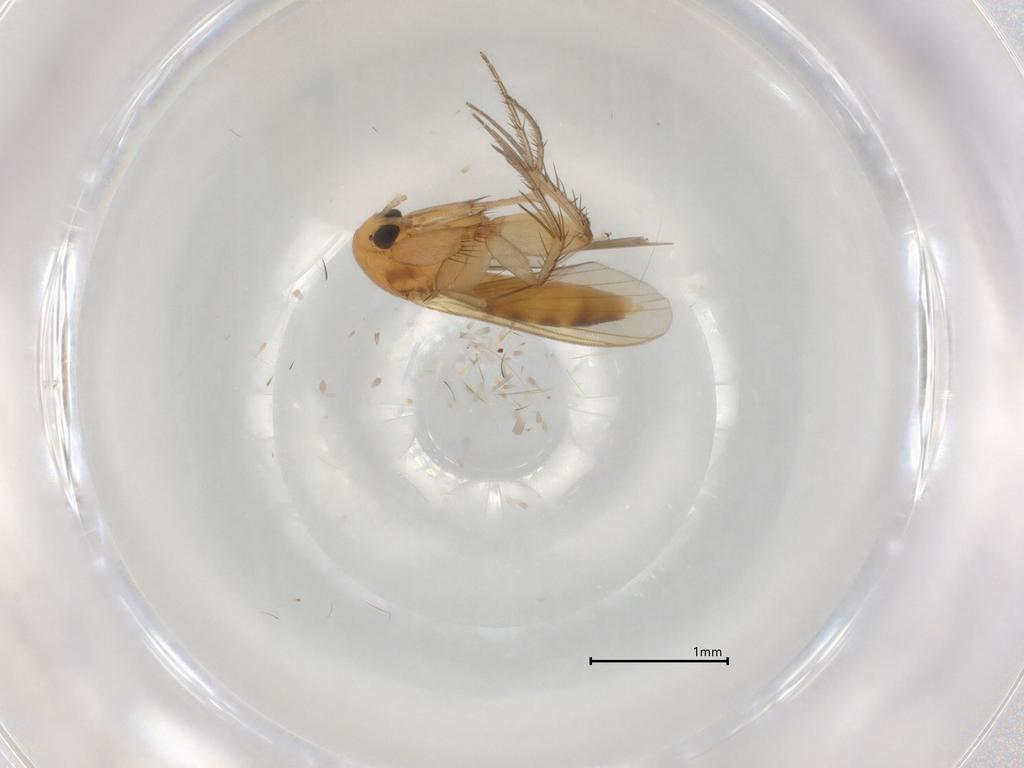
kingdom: Animalia
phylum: Arthropoda
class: Insecta
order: Diptera
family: Mycetophilidae
